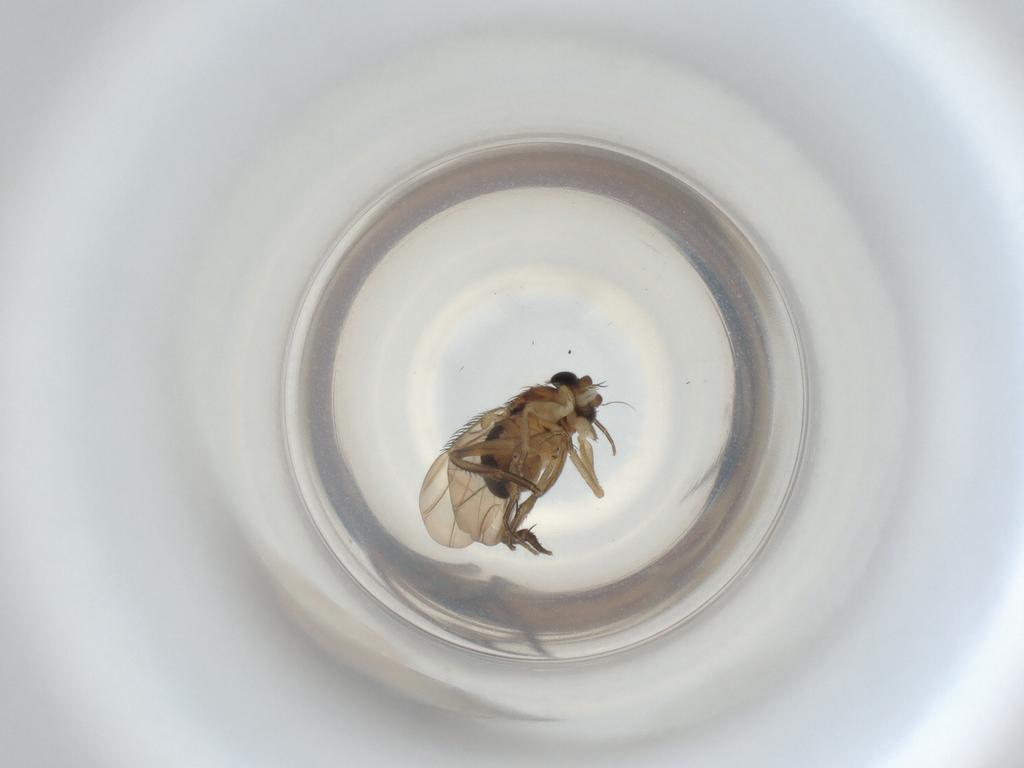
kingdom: Animalia
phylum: Arthropoda
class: Insecta
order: Diptera
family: Phoridae
